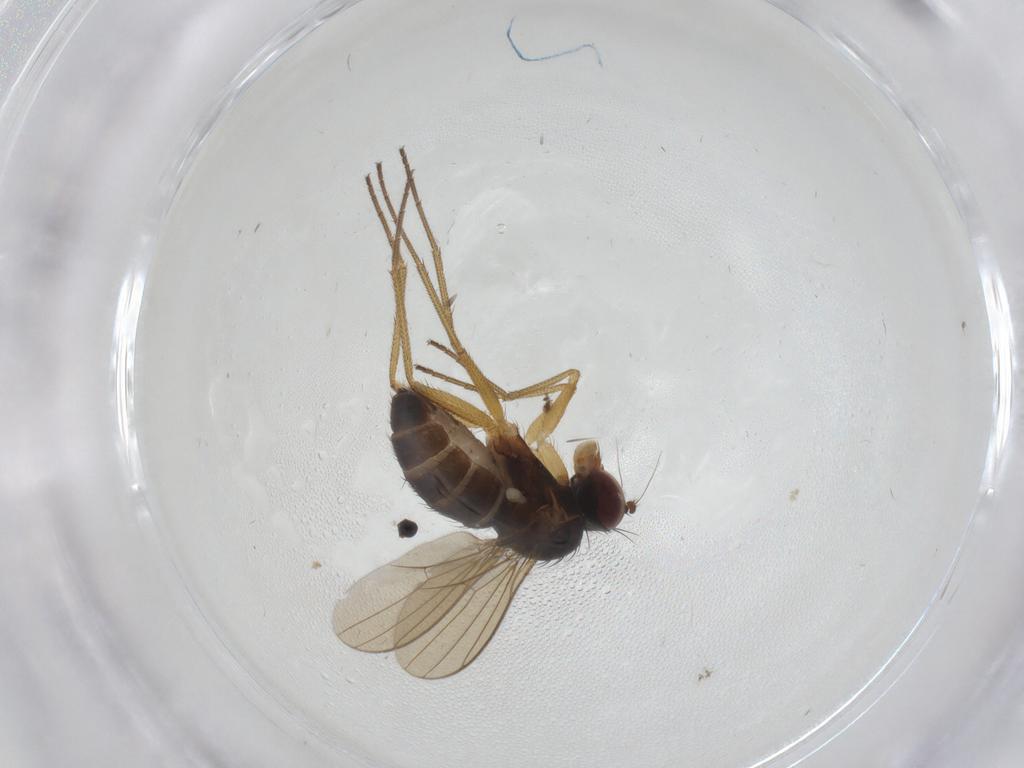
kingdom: Animalia
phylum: Arthropoda
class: Insecta
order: Diptera
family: Dolichopodidae
